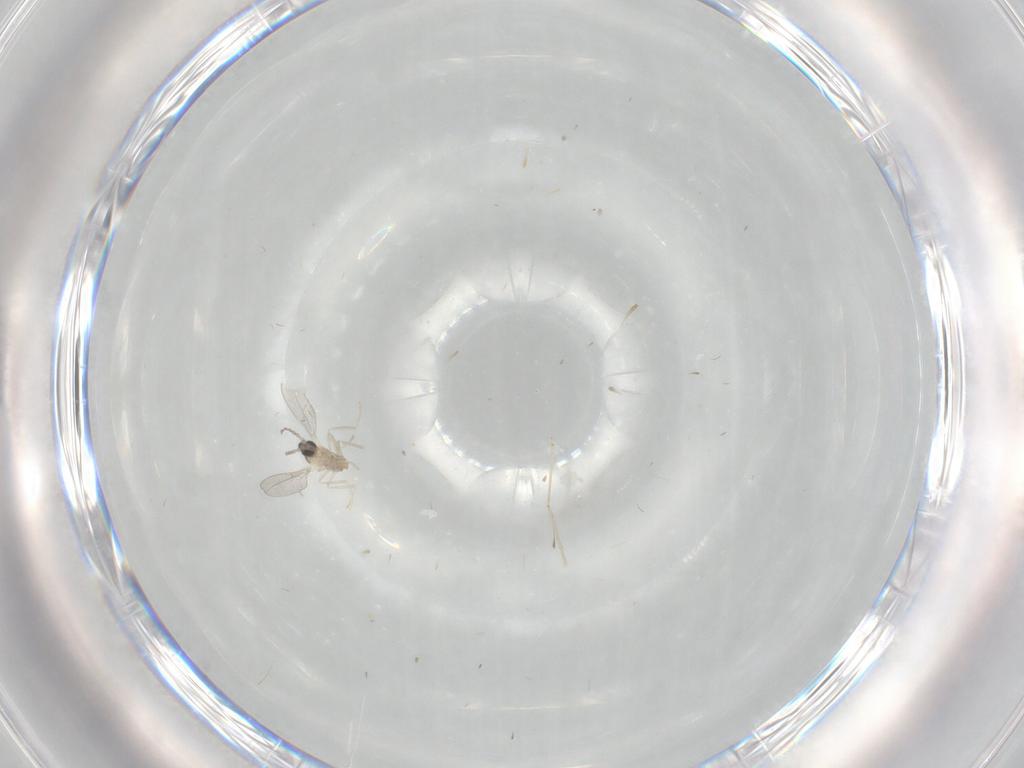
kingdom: Animalia
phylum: Arthropoda
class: Insecta
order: Diptera
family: Cecidomyiidae
